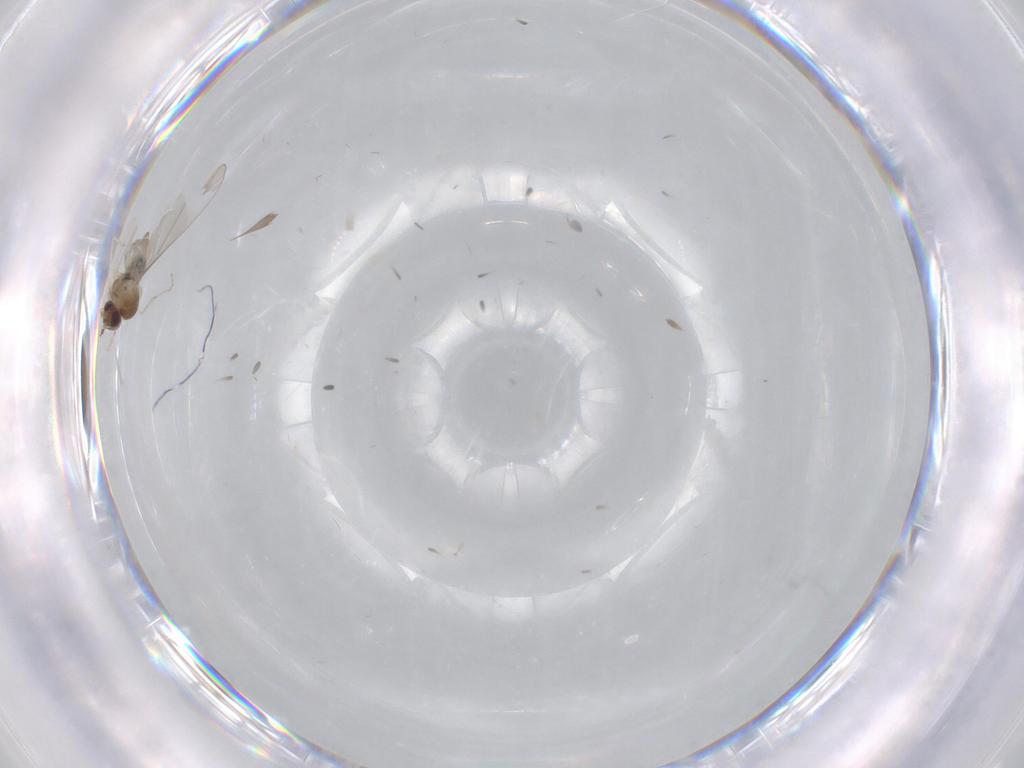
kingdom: Animalia
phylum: Arthropoda
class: Insecta
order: Diptera
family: Cecidomyiidae
